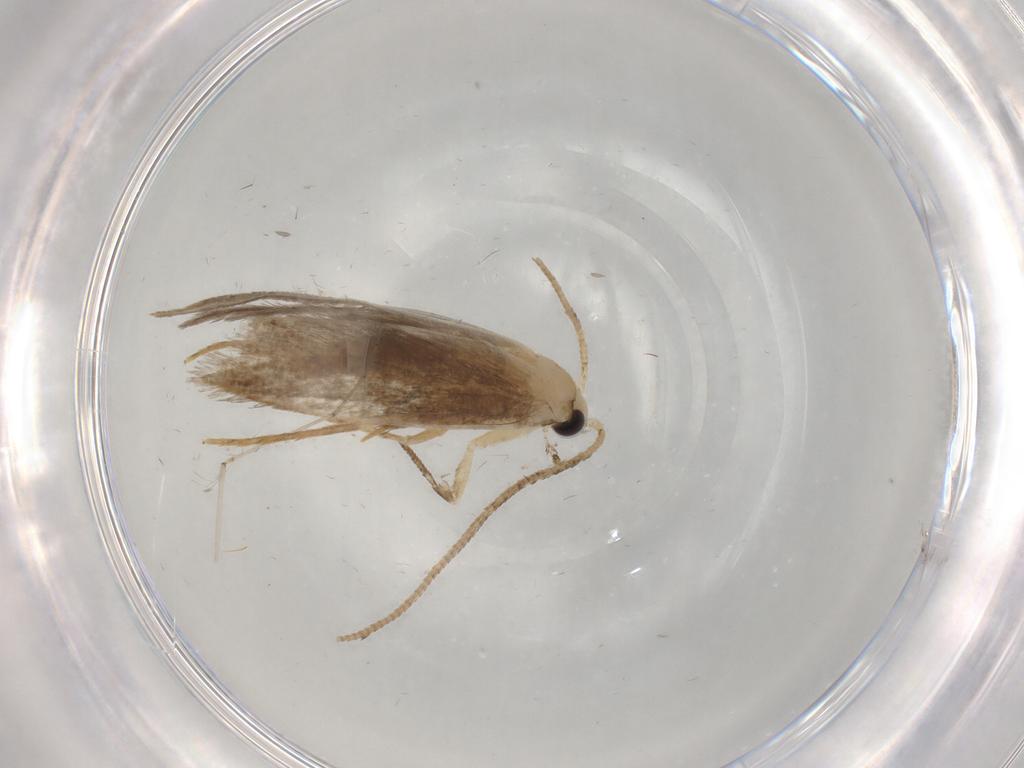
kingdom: Animalia
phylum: Arthropoda
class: Insecta
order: Lepidoptera
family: Tineidae
